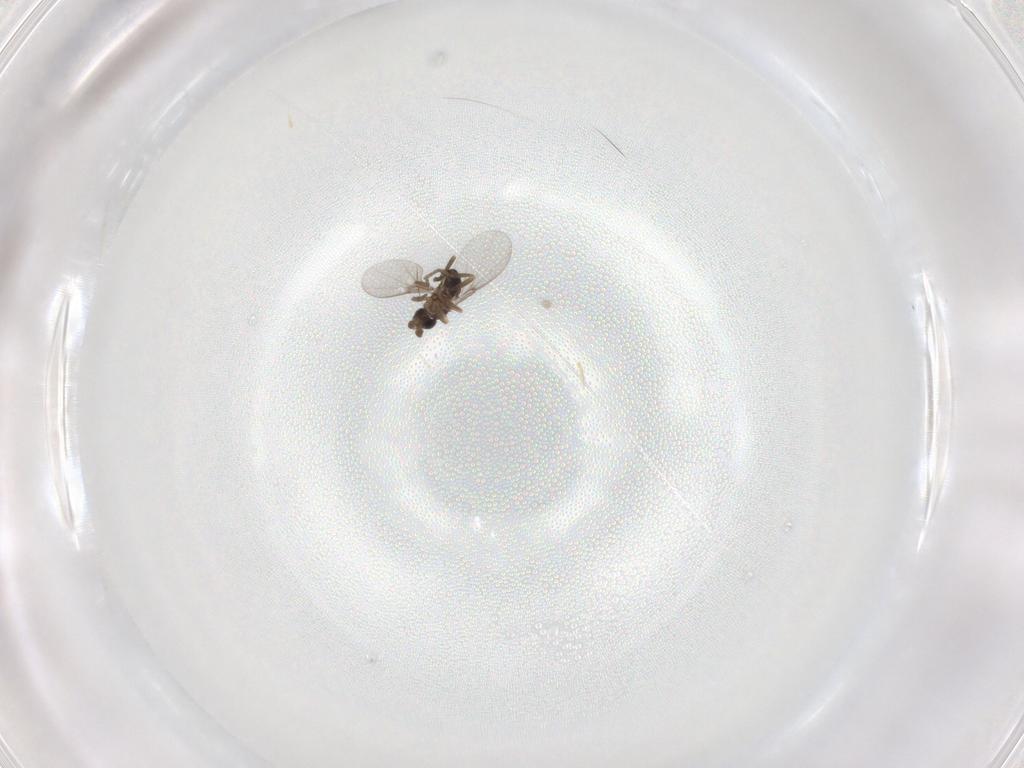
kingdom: Animalia
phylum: Arthropoda
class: Insecta
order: Diptera
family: Phoridae
